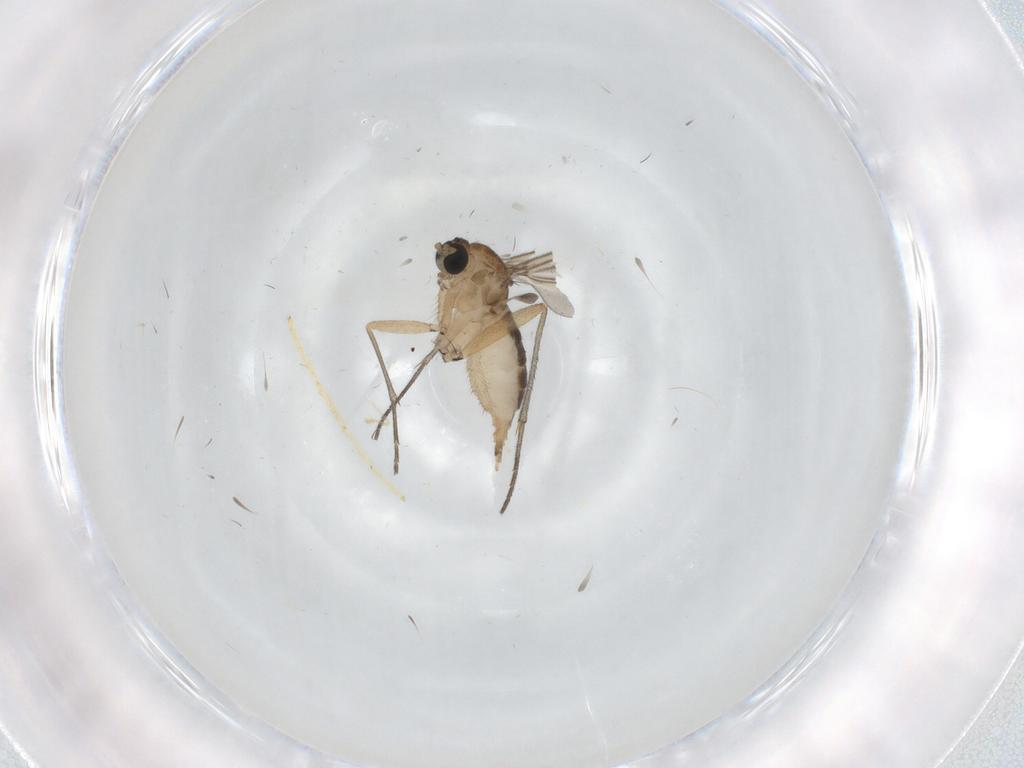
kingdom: Animalia
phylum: Arthropoda
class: Insecta
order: Diptera
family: Sciaridae
